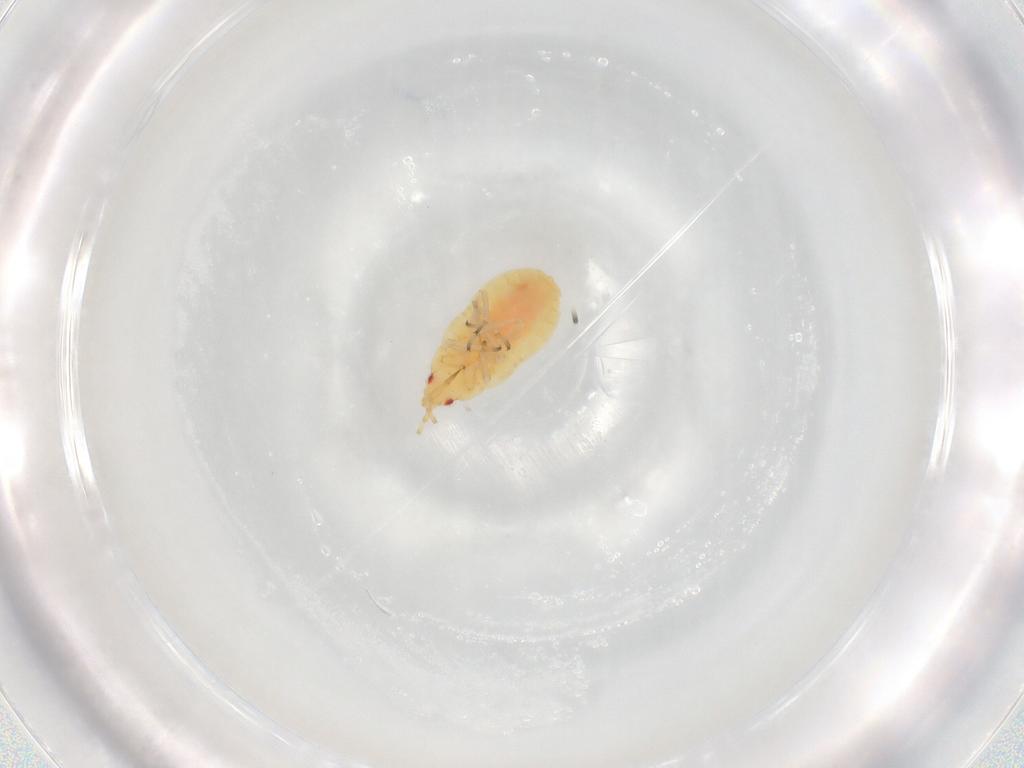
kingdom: Animalia
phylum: Arthropoda
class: Insecta
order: Hemiptera
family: Anthocoridae
